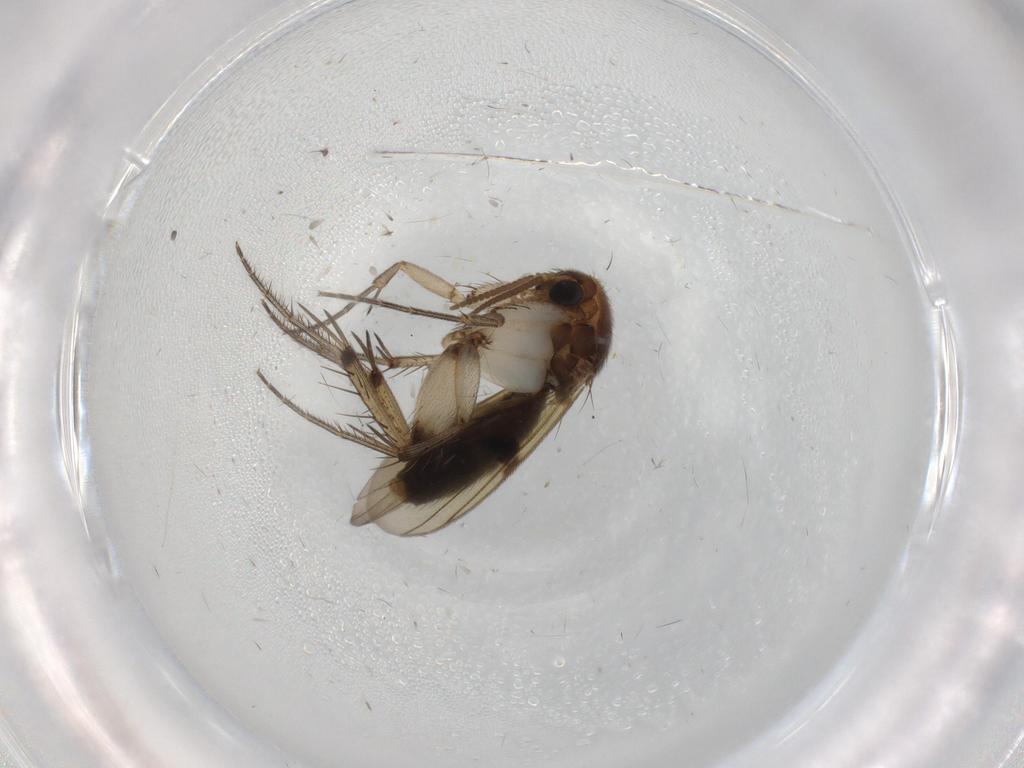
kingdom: Animalia
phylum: Arthropoda
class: Insecta
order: Diptera
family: Mycetophilidae
